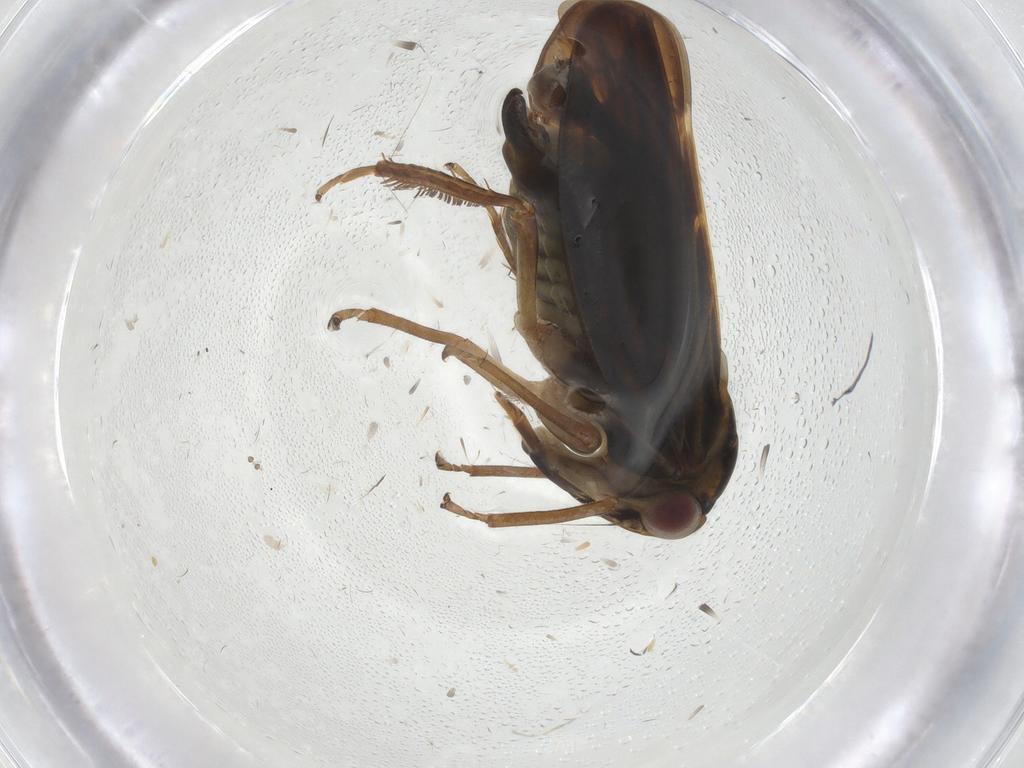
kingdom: Animalia
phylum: Arthropoda
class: Insecta
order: Hemiptera
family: Cicadellidae
